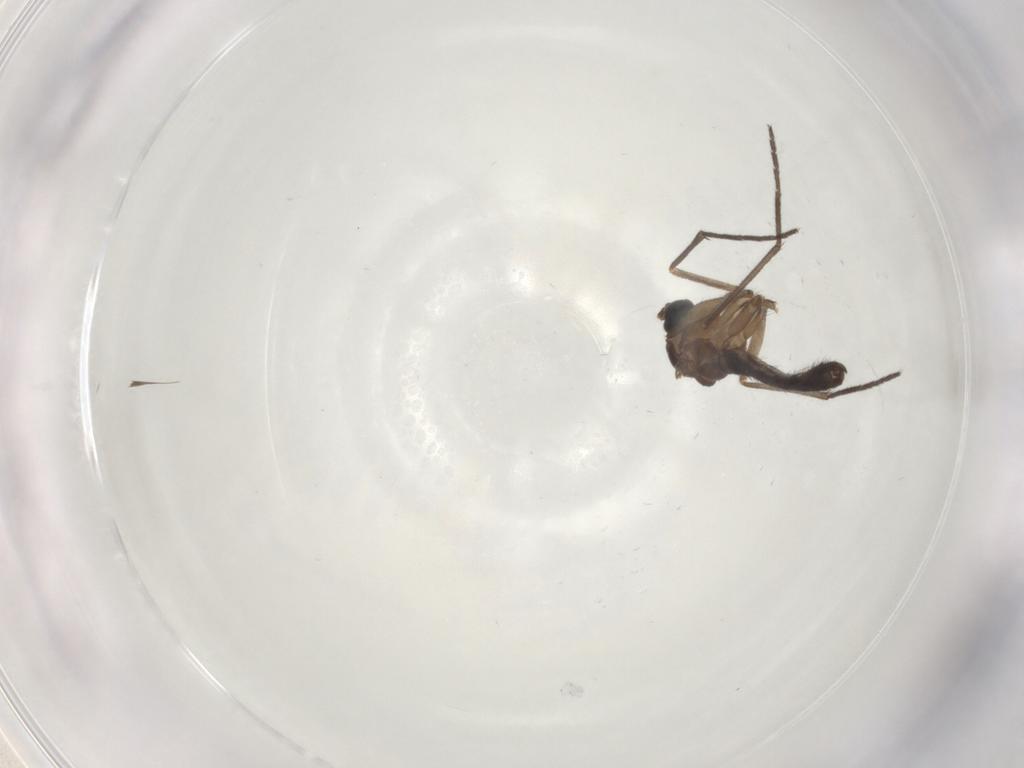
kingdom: Animalia
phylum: Arthropoda
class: Insecta
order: Diptera
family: Sciaridae
